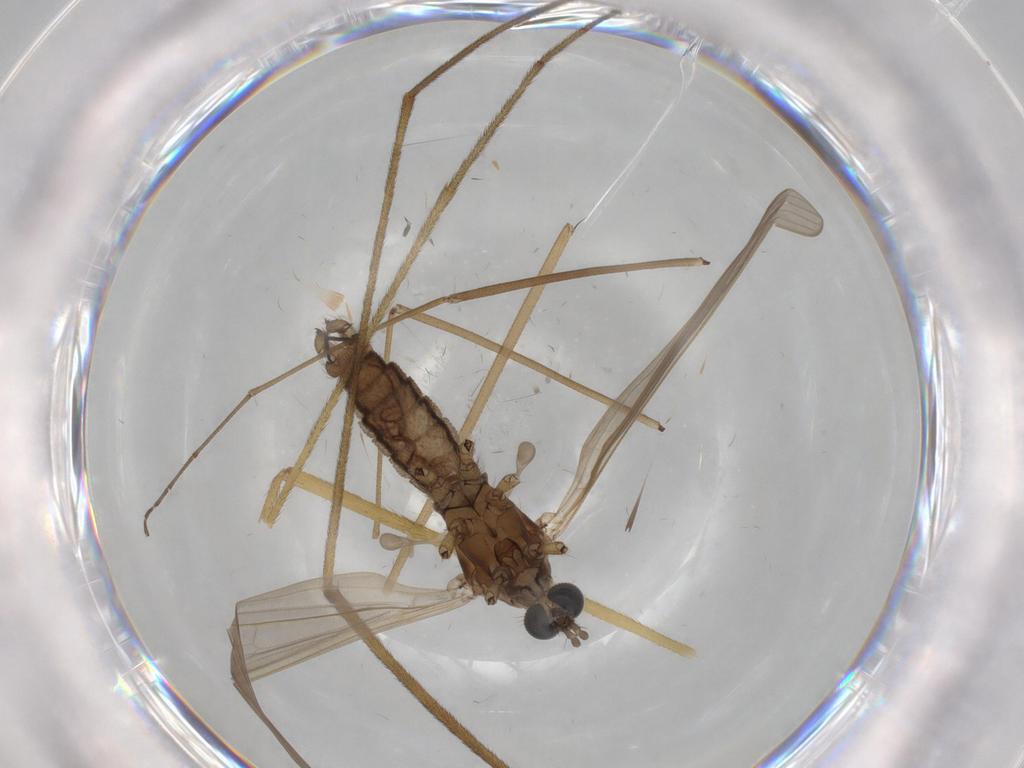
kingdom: Animalia
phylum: Arthropoda
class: Insecta
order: Diptera
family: Limoniidae
